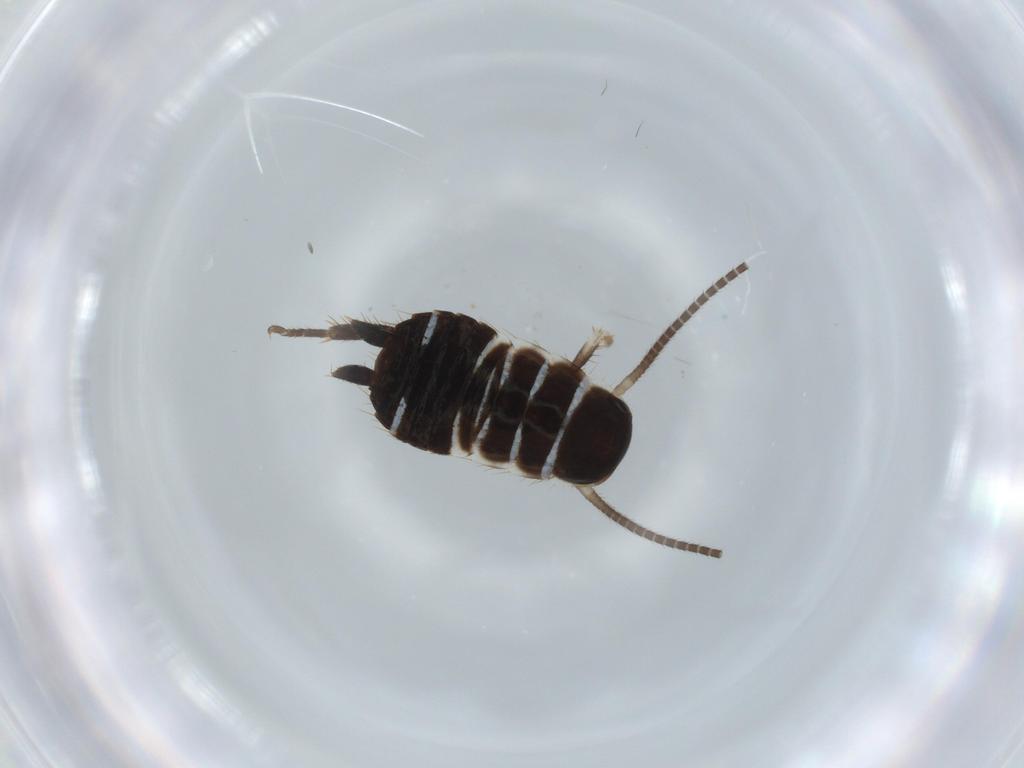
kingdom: Animalia
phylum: Arthropoda
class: Insecta
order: Blattodea
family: Ectobiidae
